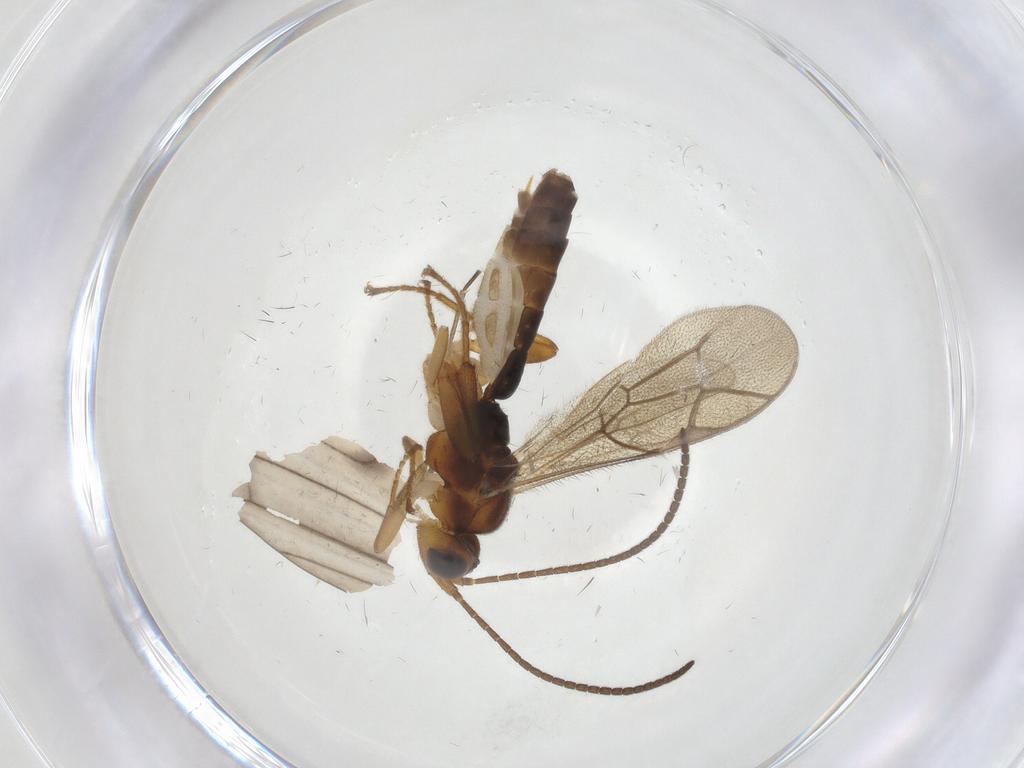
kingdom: Animalia
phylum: Arthropoda
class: Insecta
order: Hymenoptera
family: Ichneumonidae
